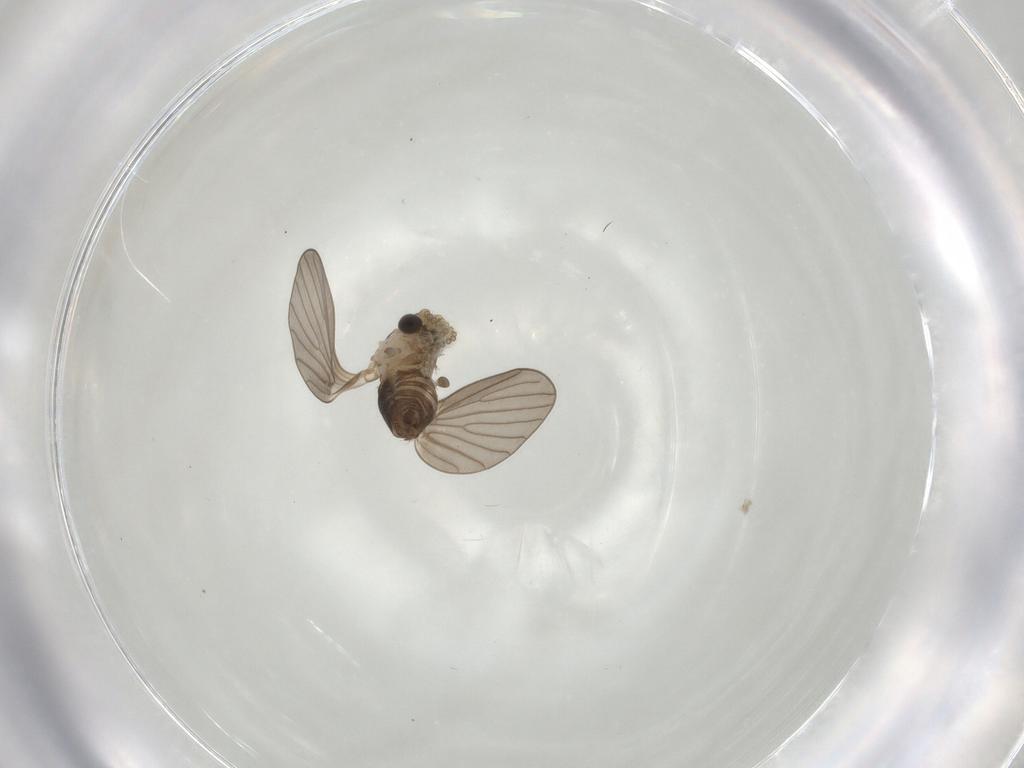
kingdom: Animalia
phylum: Arthropoda
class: Insecta
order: Diptera
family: Psychodidae
